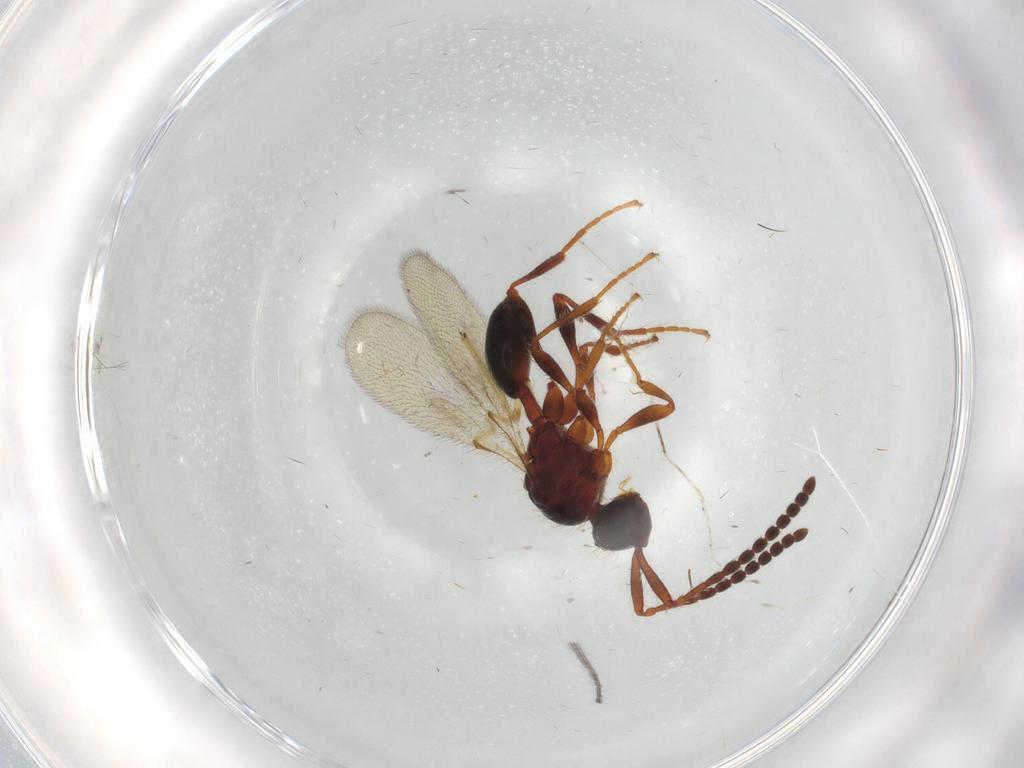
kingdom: Animalia
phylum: Arthropoda
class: Insecta
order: Hymenoptera
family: Diapriidae
